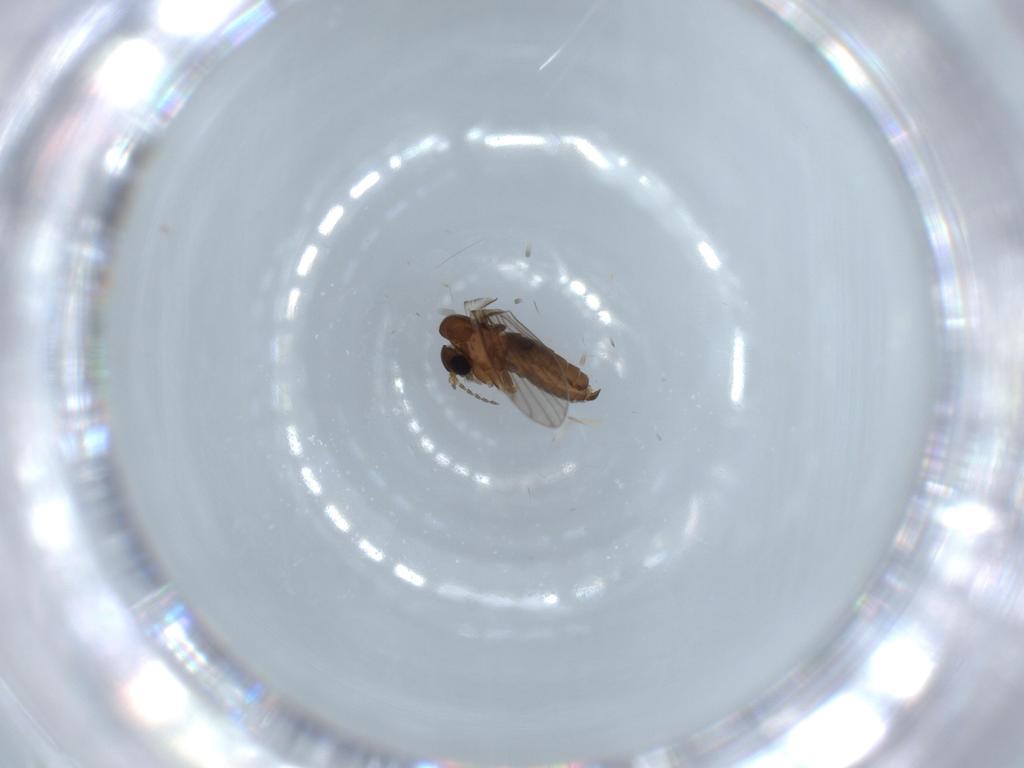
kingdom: Animalia
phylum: Arthropoda
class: Insecta
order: Diptera
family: Psychodidae
